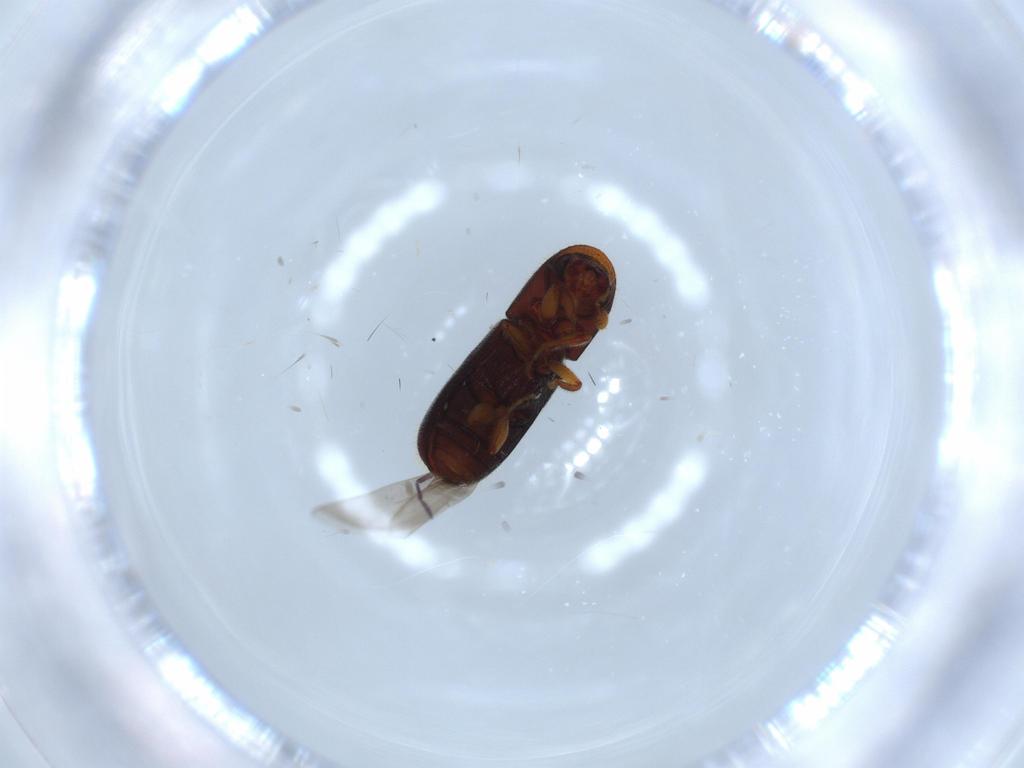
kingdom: Animalia
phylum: Arthropoda
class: Insecta
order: Coleoptera
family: Curculionidae
